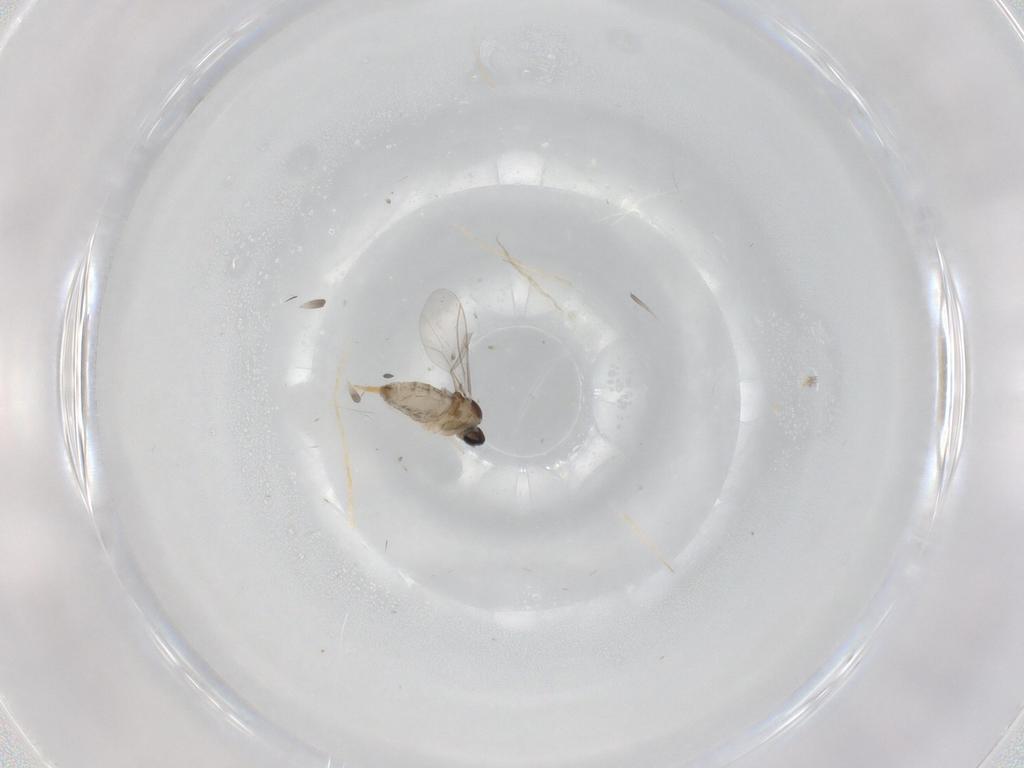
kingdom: Animalia
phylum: Arthropoda
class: Insecta
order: Diptera
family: Cecidomyiidae
